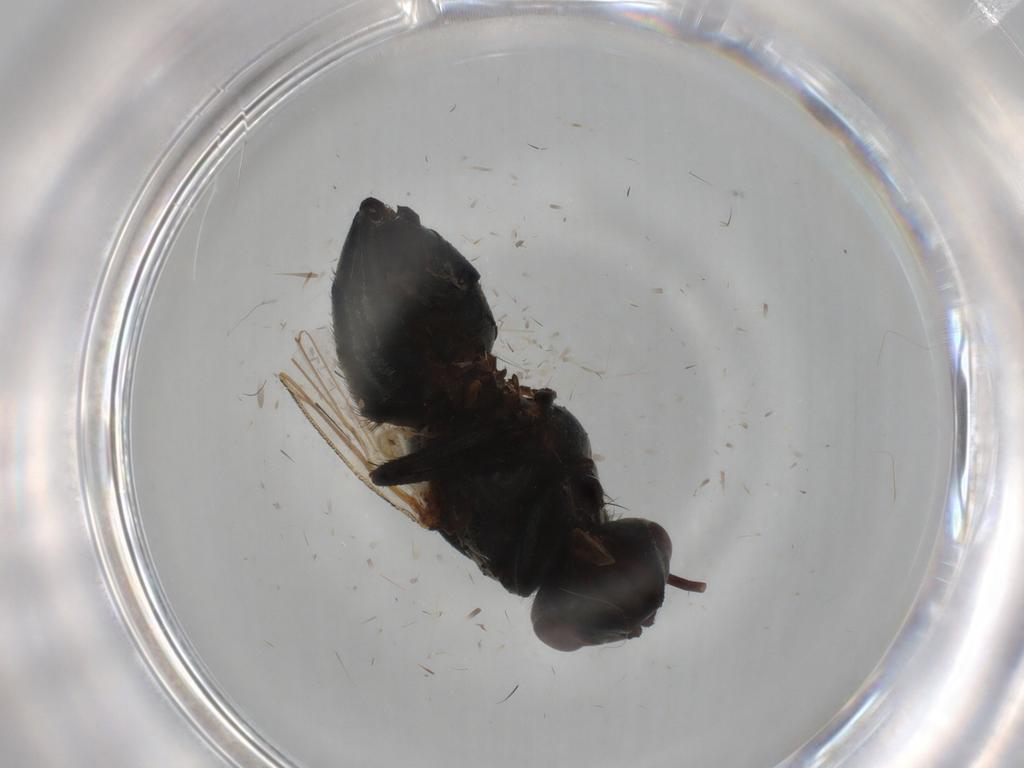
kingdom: Animalia
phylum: Arthropoda
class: Insecta
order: Diptera
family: Muscidae
